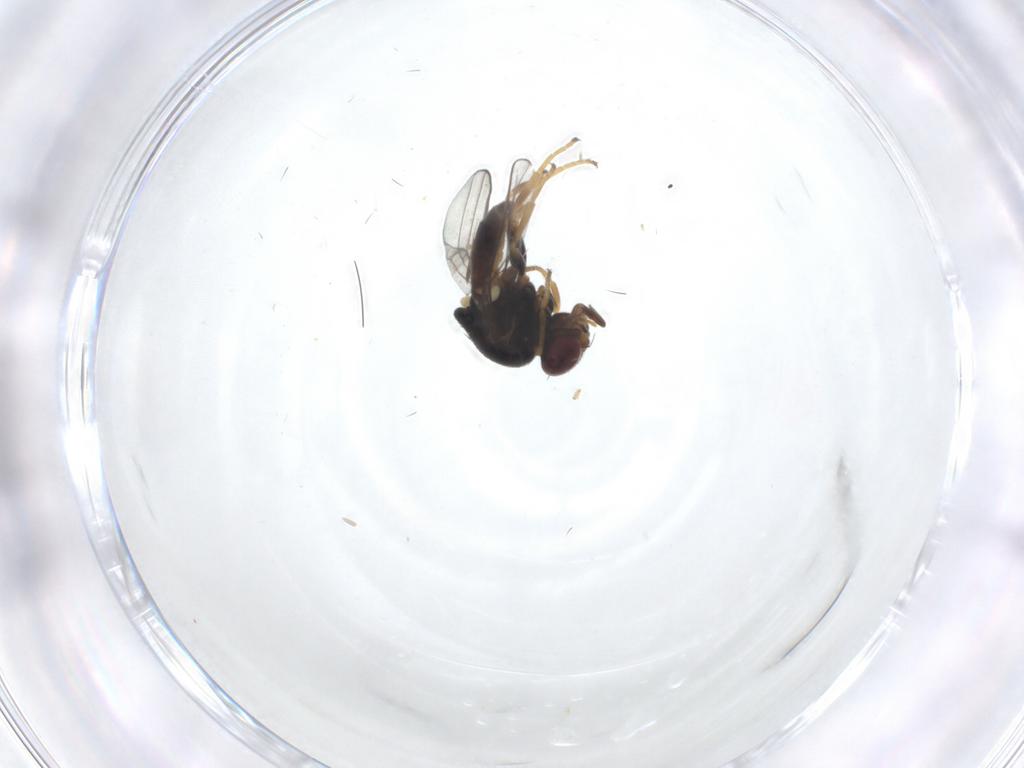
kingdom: Animalia
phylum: Arthropoda
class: Insecta
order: Diptera
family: Chloropidae
